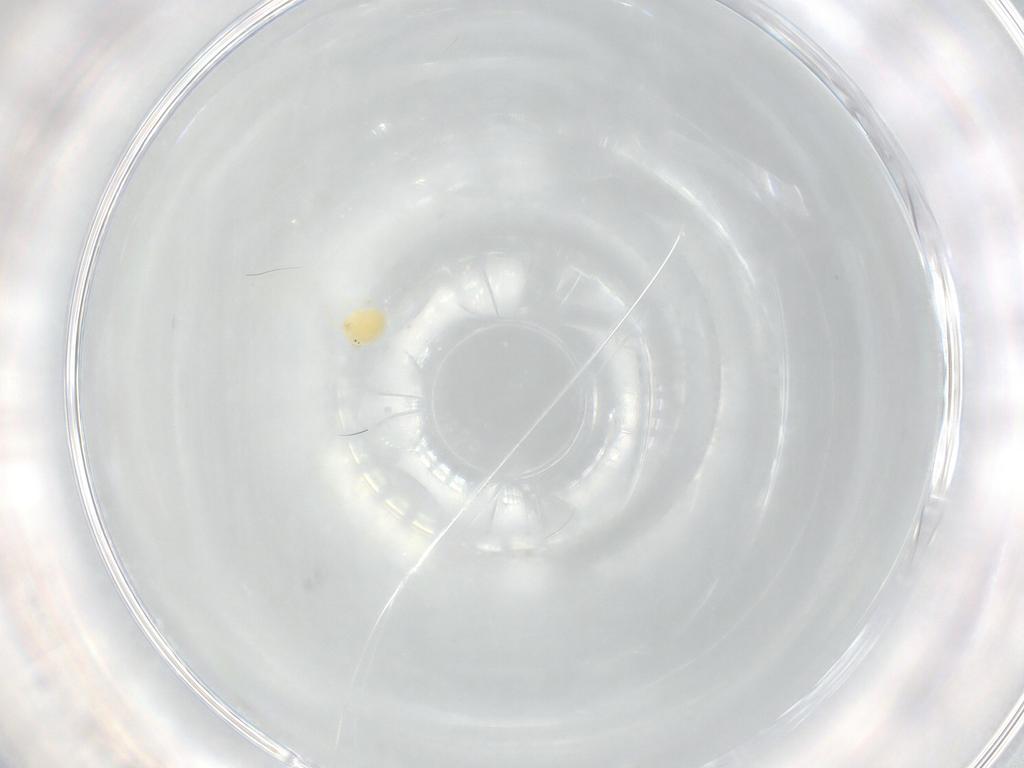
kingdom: Animalia
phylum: Arthropoda
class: Arachnida
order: Trombidiformes
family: Hydryphantidae
